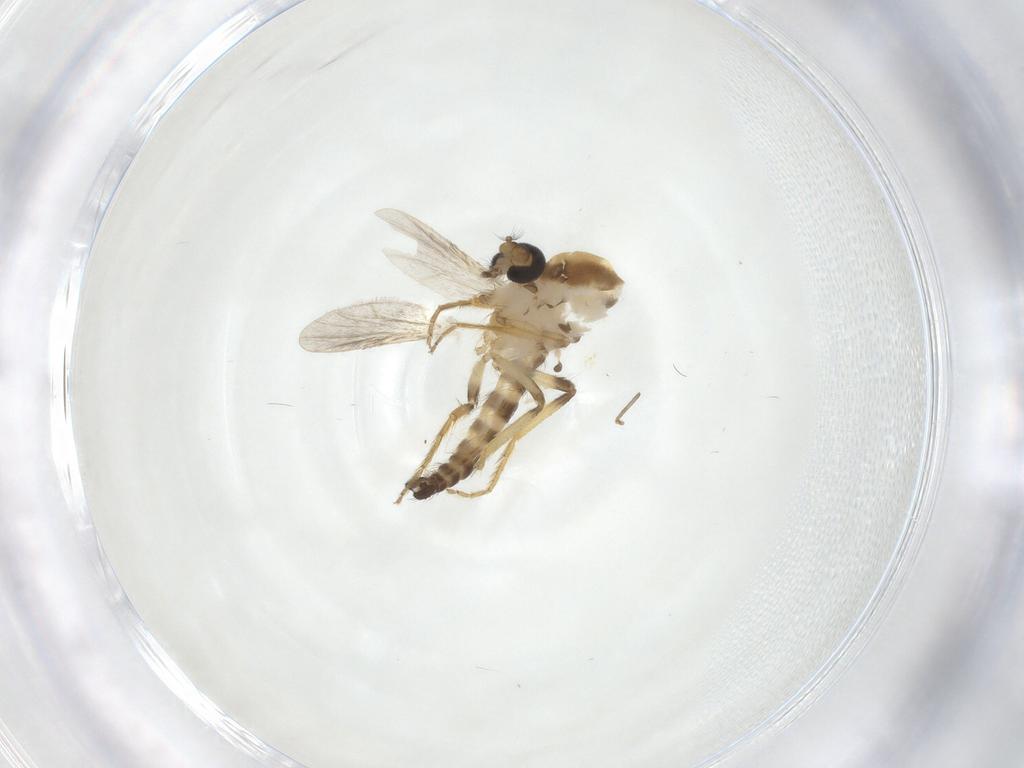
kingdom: Animalia
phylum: Arthropoda
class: Insecta
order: Diptera
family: Ceratopogonidae
